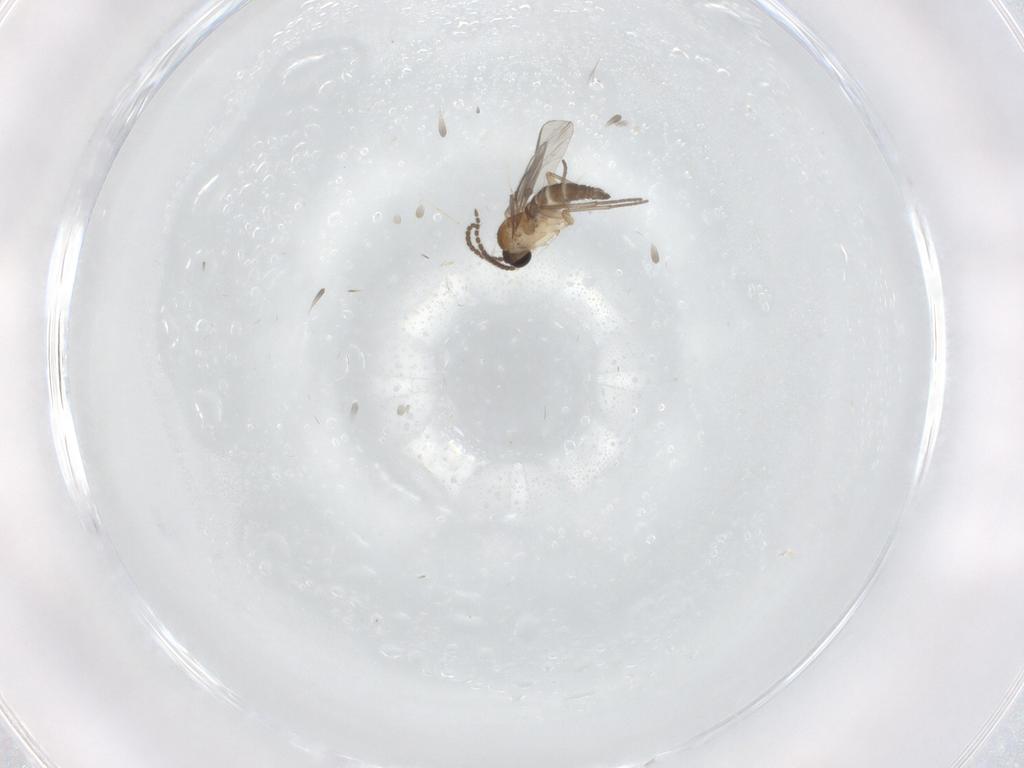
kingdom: Animalia
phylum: Arthropoda
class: Insecta
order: Diptera
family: Sciaridae
